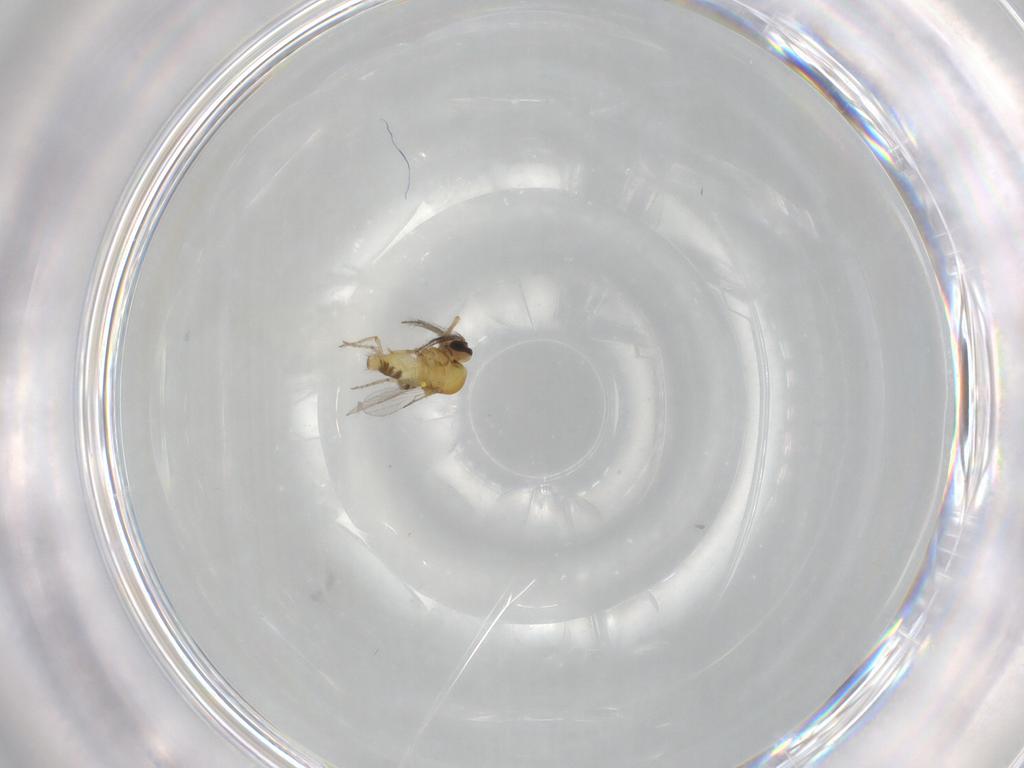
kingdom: Animalia
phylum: Arthropoda
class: Insecta
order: Diptera
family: Ceratopogonidae
